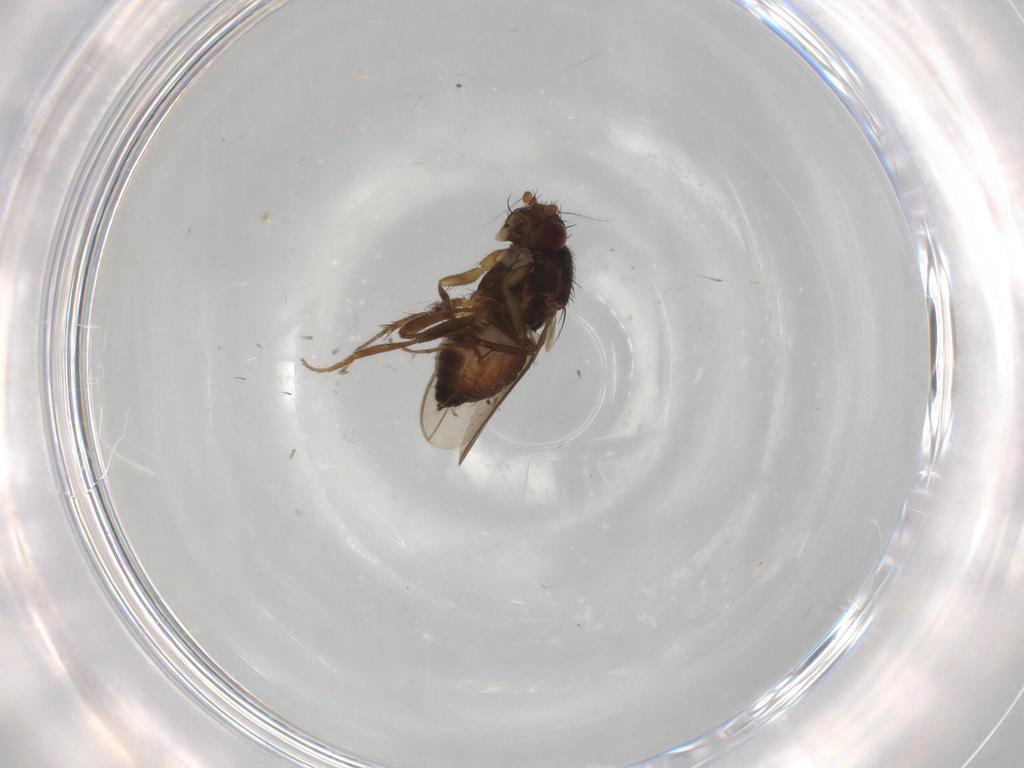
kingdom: Animalia
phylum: Arthropoda
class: Insecta
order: Diptera
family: Sphaeroceridae
